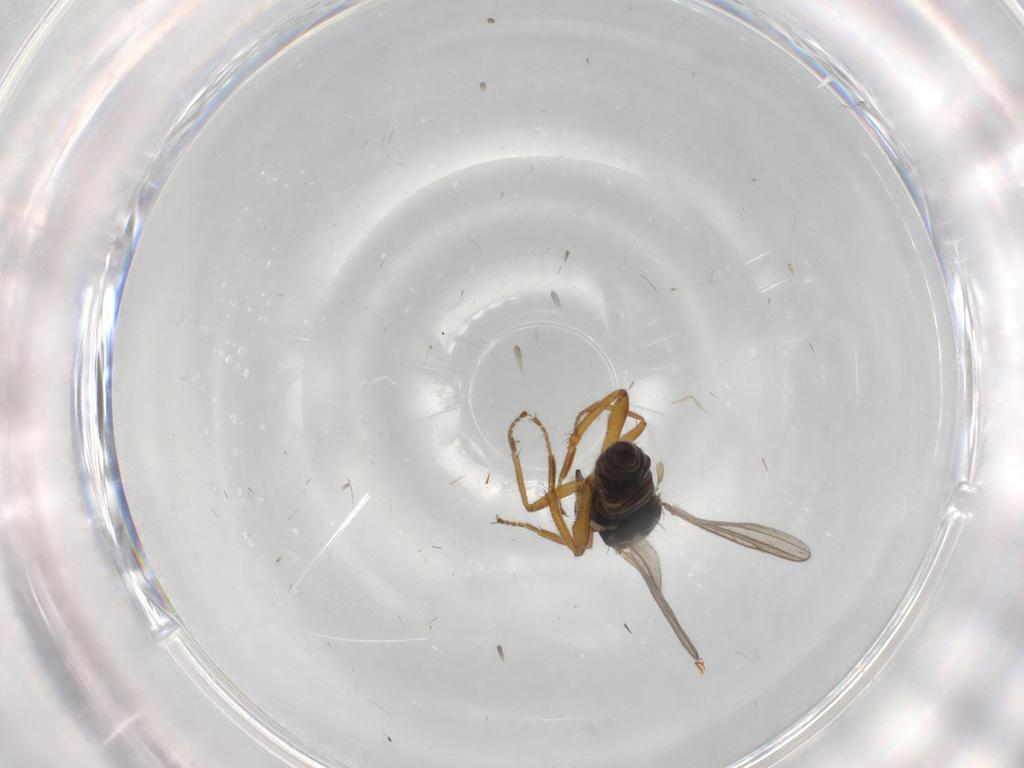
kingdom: Animalia
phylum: Arthropoda
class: Insecta
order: Diptera
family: Hybotidae
